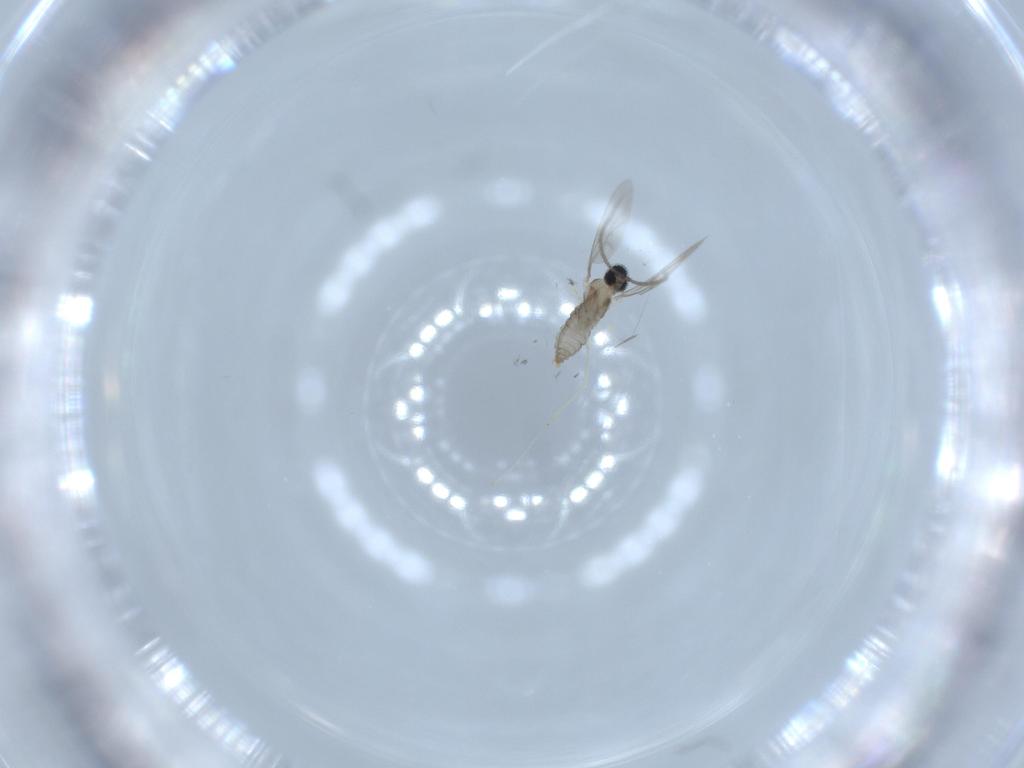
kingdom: Animalia
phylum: Arthropoda
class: Insecta
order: Diptera
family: Cecidomyiidae
